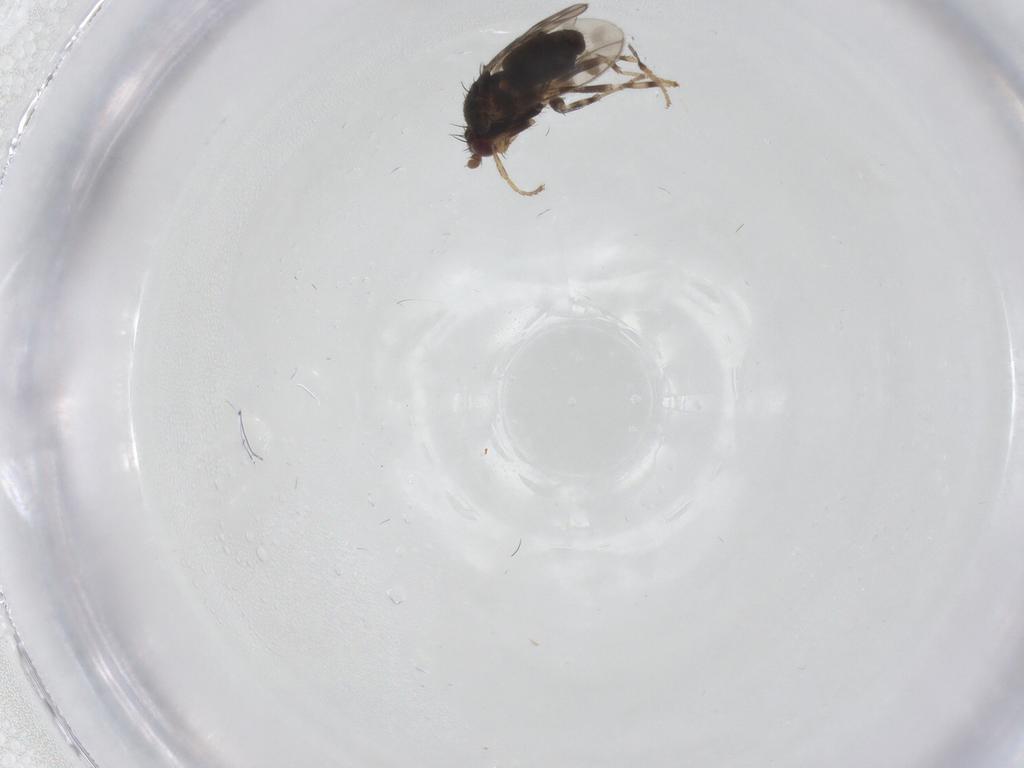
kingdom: Animalia
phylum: Arthropoda
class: Insecta
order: Diptera
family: Sphaeroceridae
